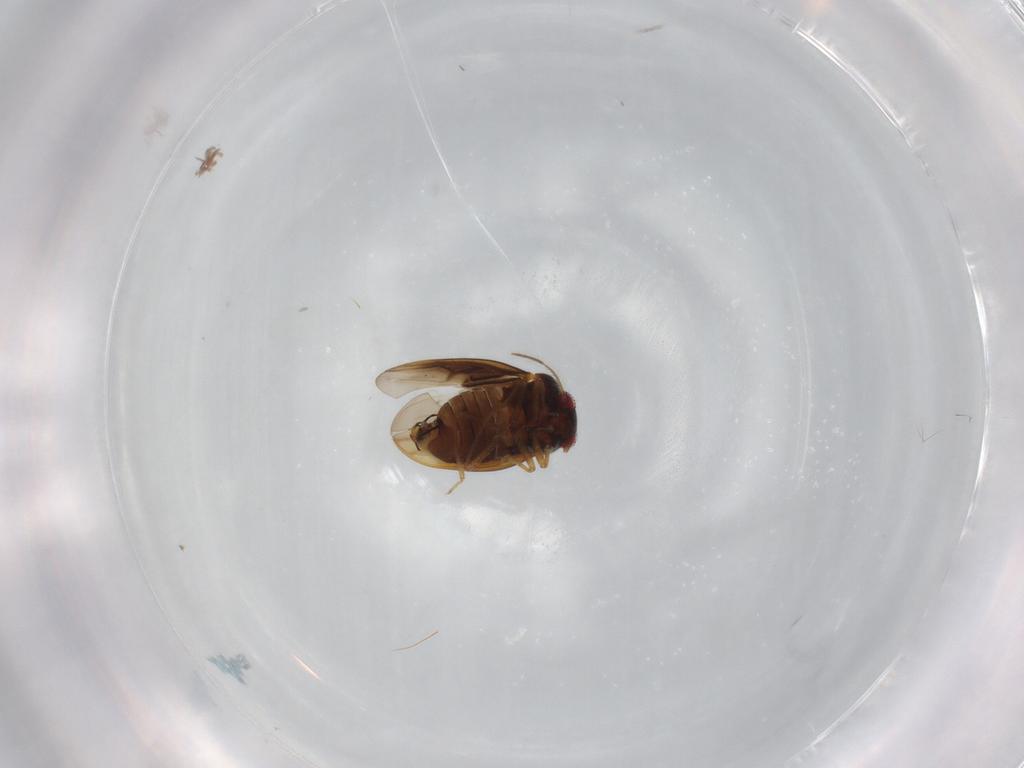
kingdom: Animalia
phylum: Arthropoda
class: Insecta
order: Hemiptera
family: Schizopteridae
